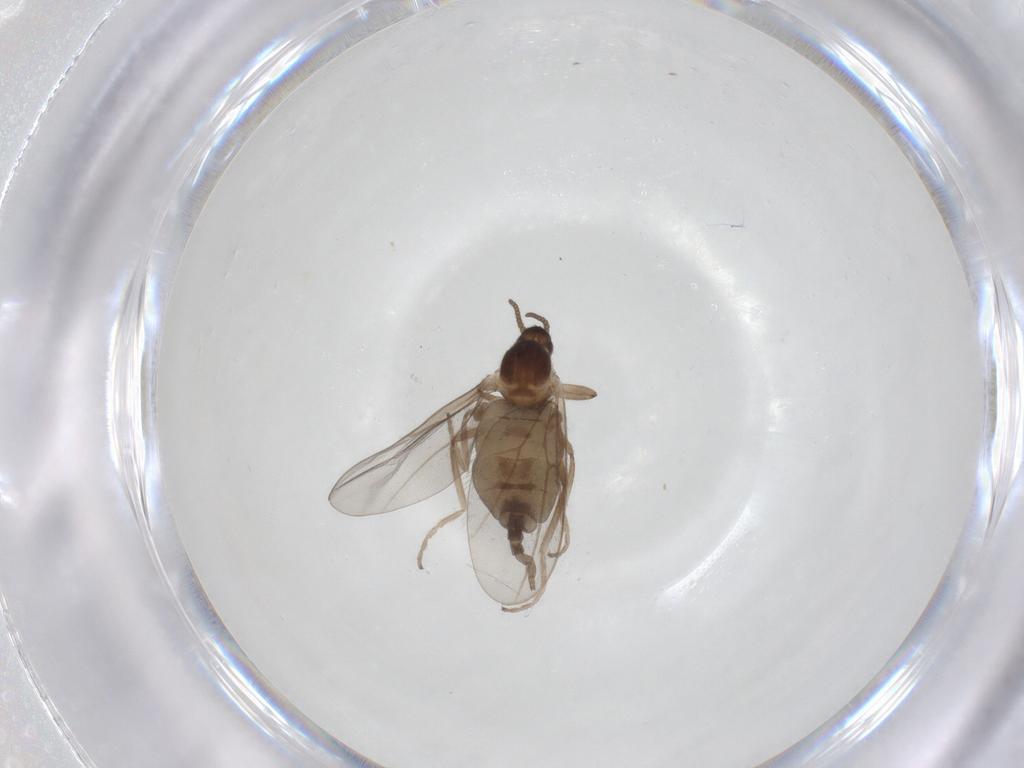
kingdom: Animalia
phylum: Arthropoda
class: Insecta
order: Diptera
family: Cecidomyiidae
